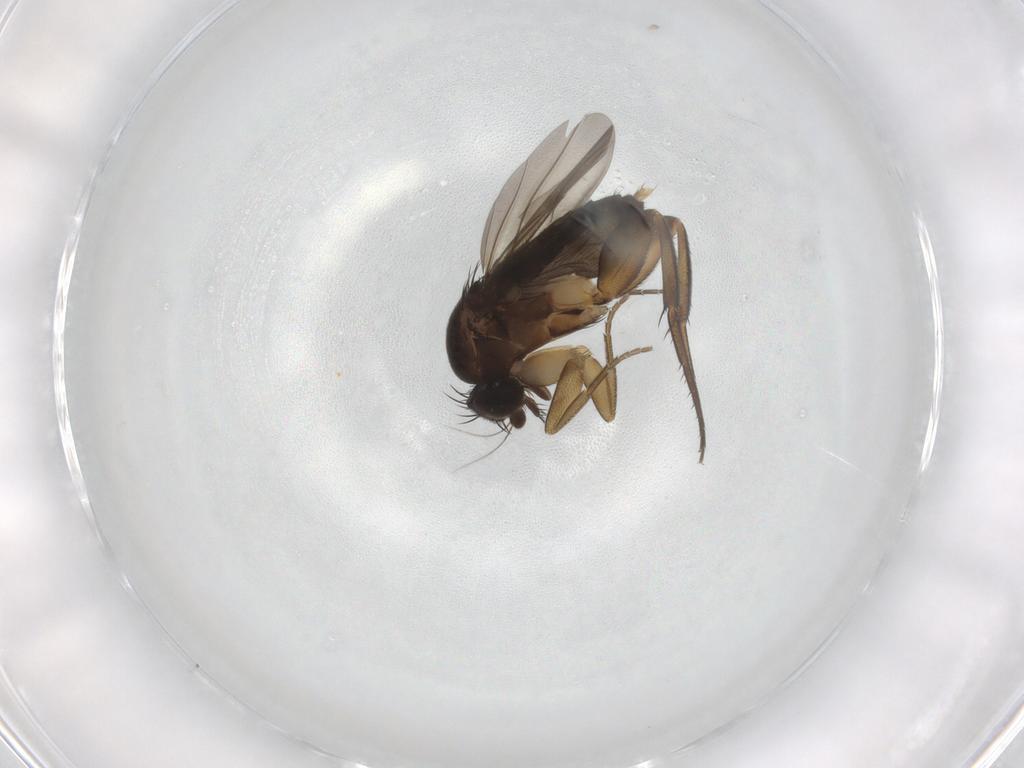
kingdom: Animalia
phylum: Arthropoda
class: Insecta
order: Diptera
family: Phoridae
